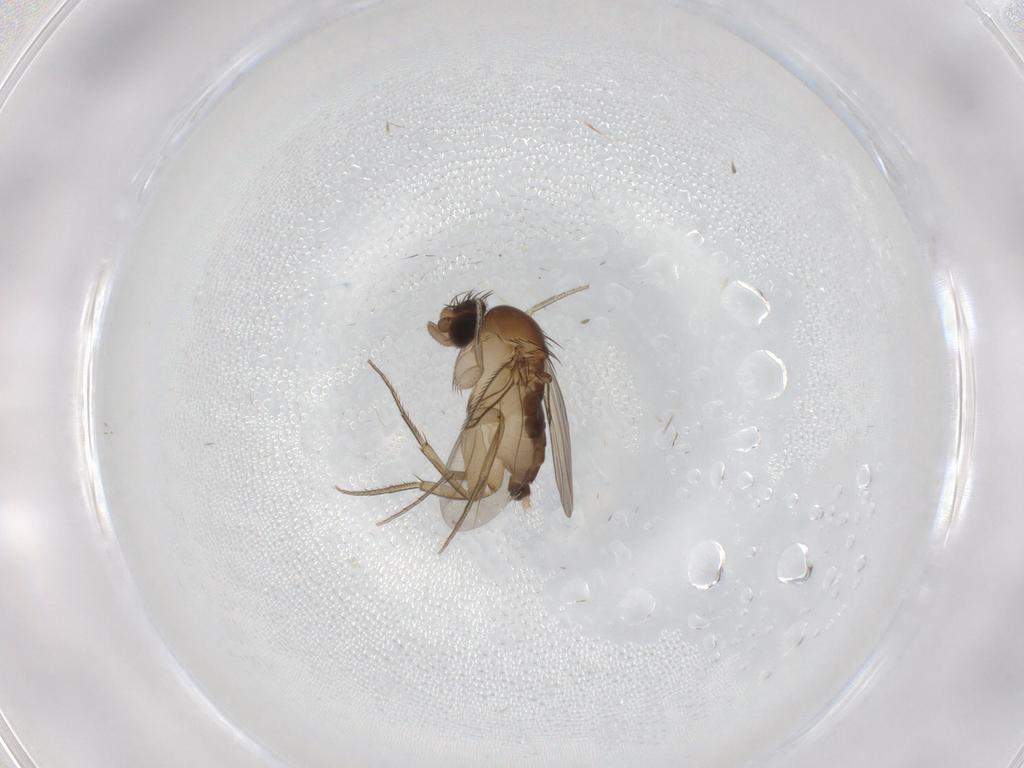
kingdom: Animalia
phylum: Arthropoda
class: Insecta
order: Diptera
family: Phoridae
